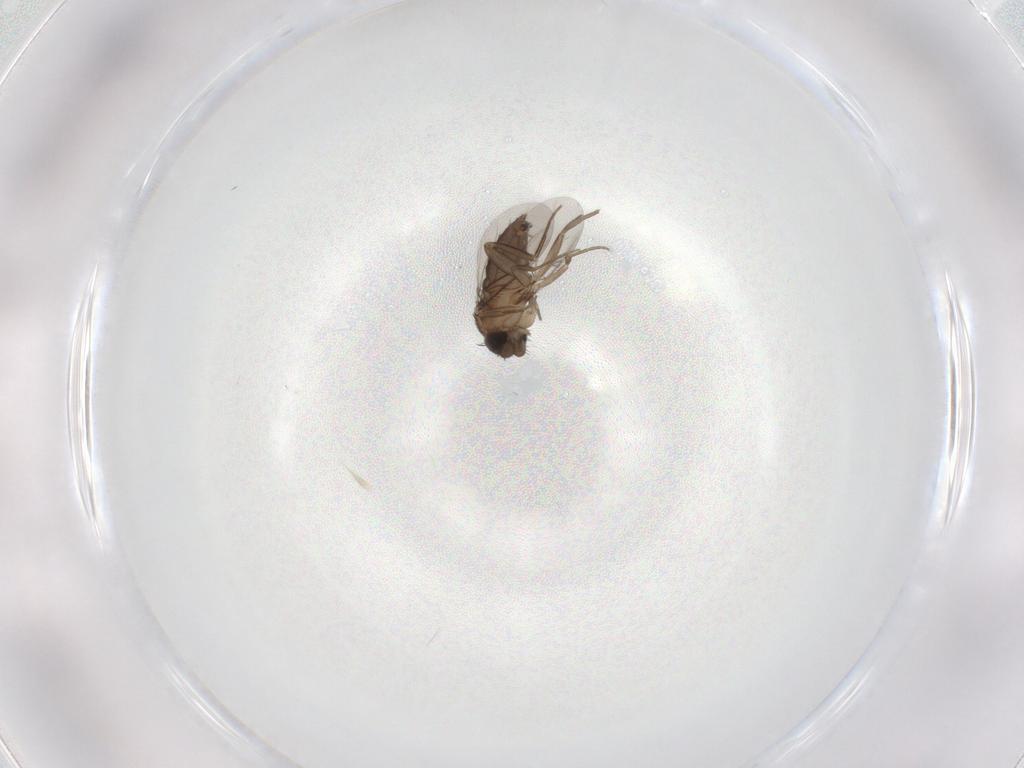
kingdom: Animalia
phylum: Arthropoda
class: Insecta
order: Diptera
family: Phoridae
